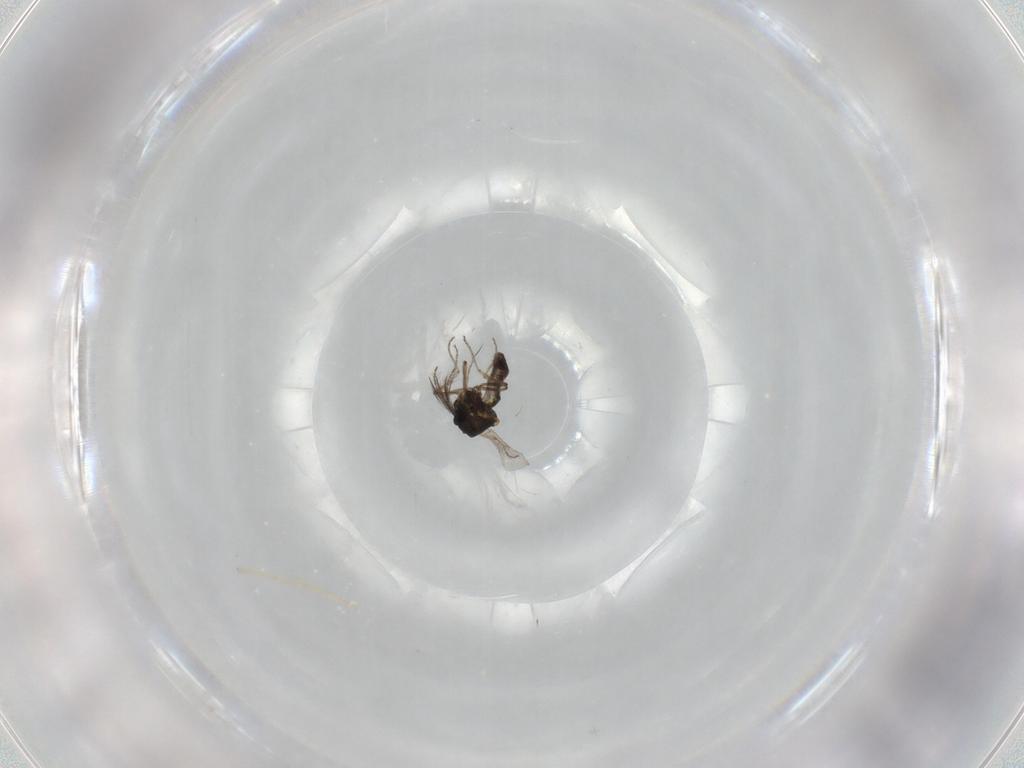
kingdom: Animalia
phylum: Arthropoda
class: Insecta
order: Diptera
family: Ceratopogonidae
